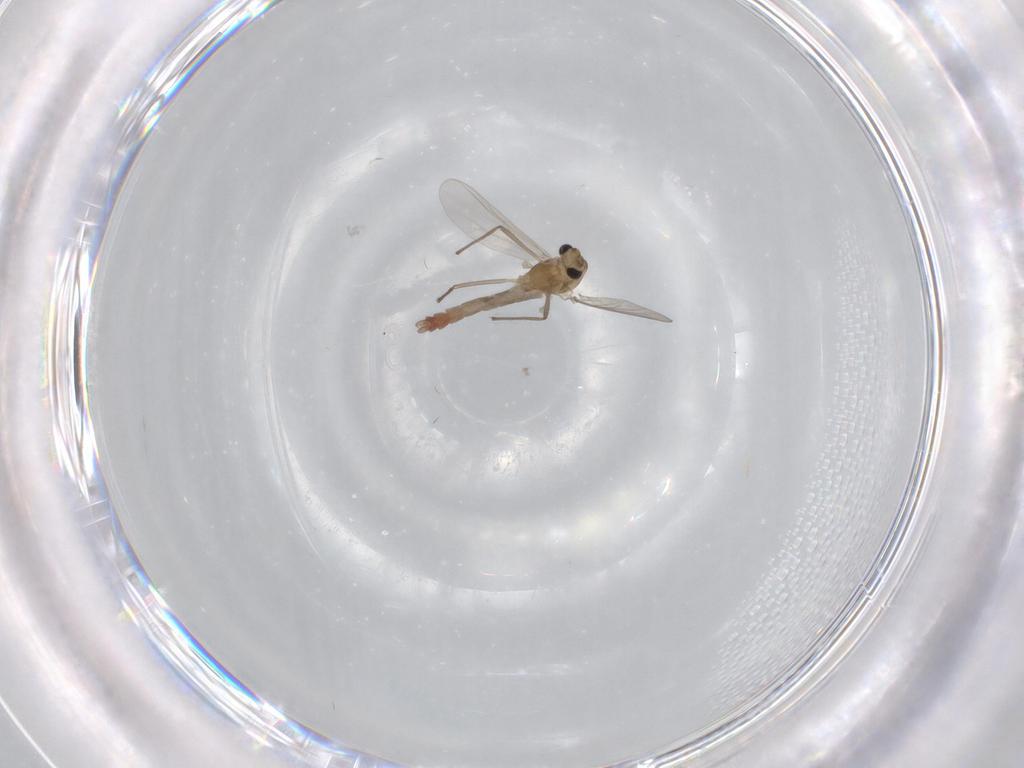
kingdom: Animalia
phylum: Arthropoda
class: Insecta
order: Diptera
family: Chironomidae
